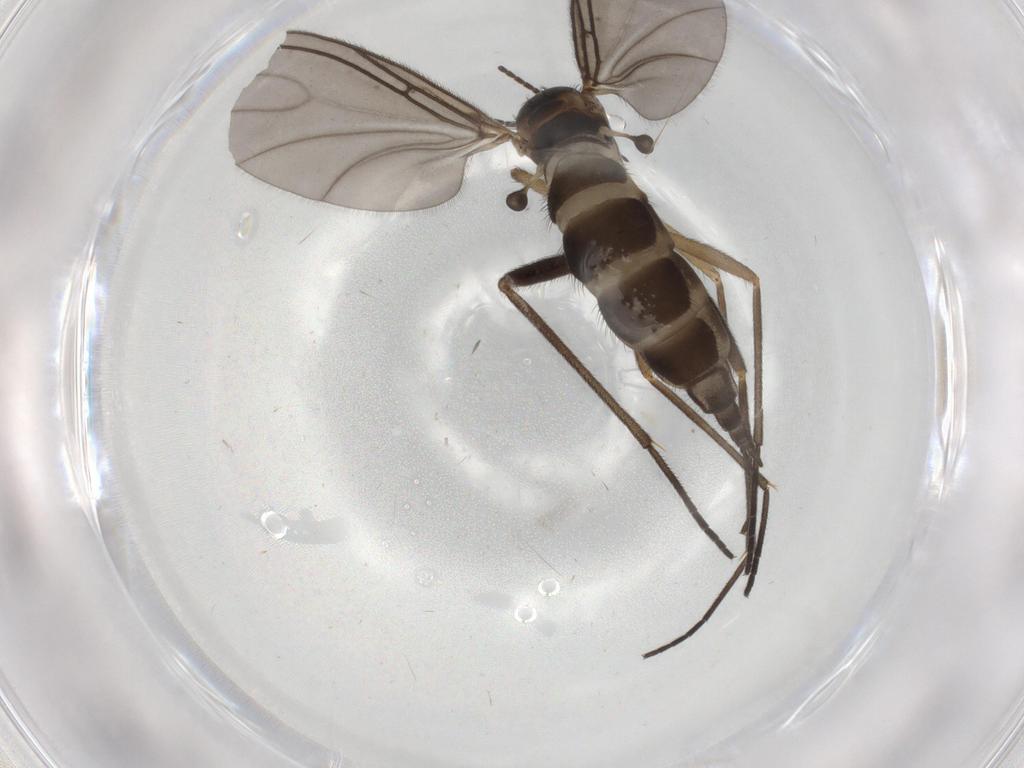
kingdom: Animalia
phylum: Arthropoda
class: Insecta
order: Diptera
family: Sciaridae
